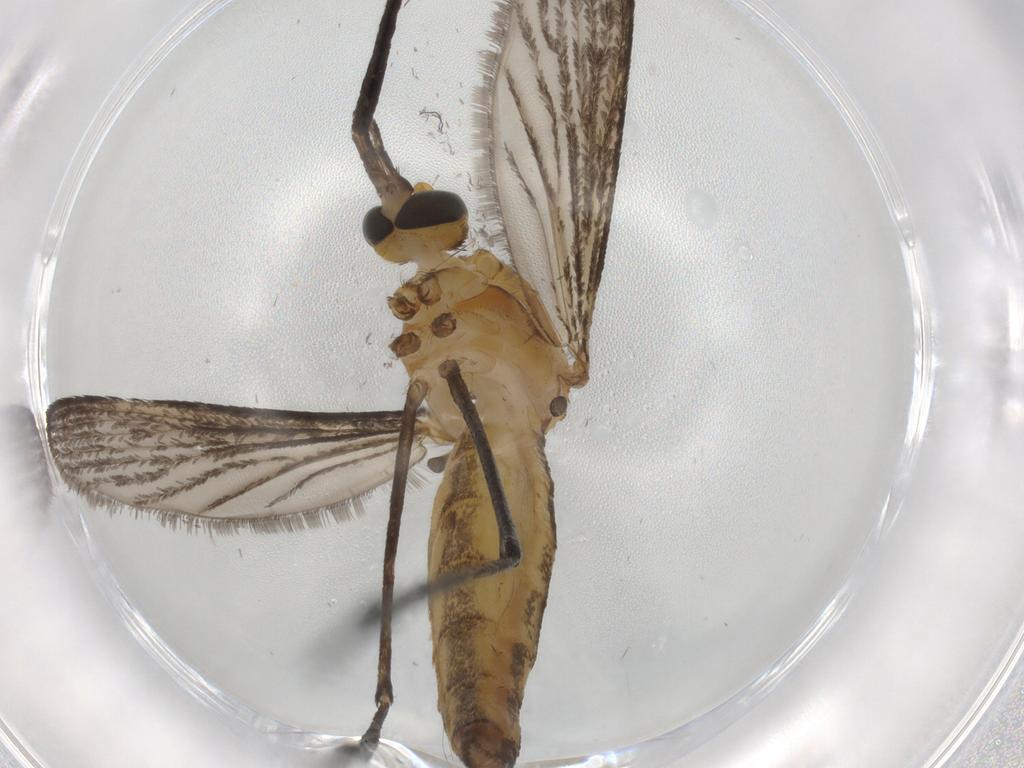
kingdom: Animalia
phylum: Arthropoda
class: Insecta
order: Diptera
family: Culicidae
